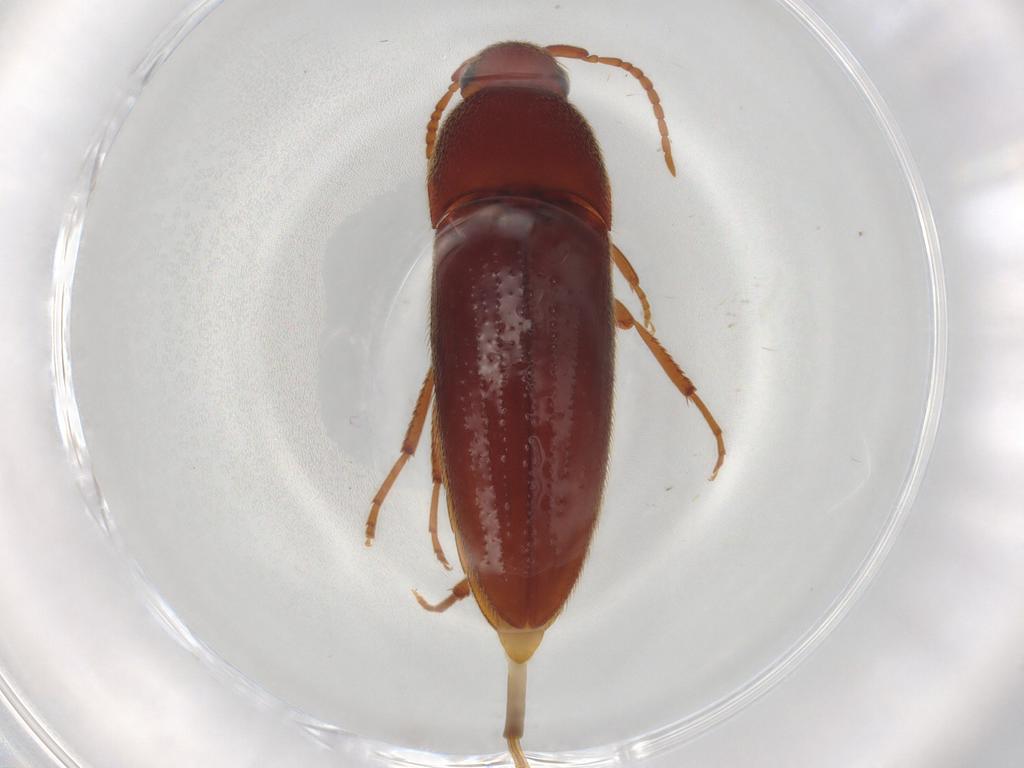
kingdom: Animalia
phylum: Arthropoda
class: Insecta
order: Coleoptera
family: Eucnemidae
